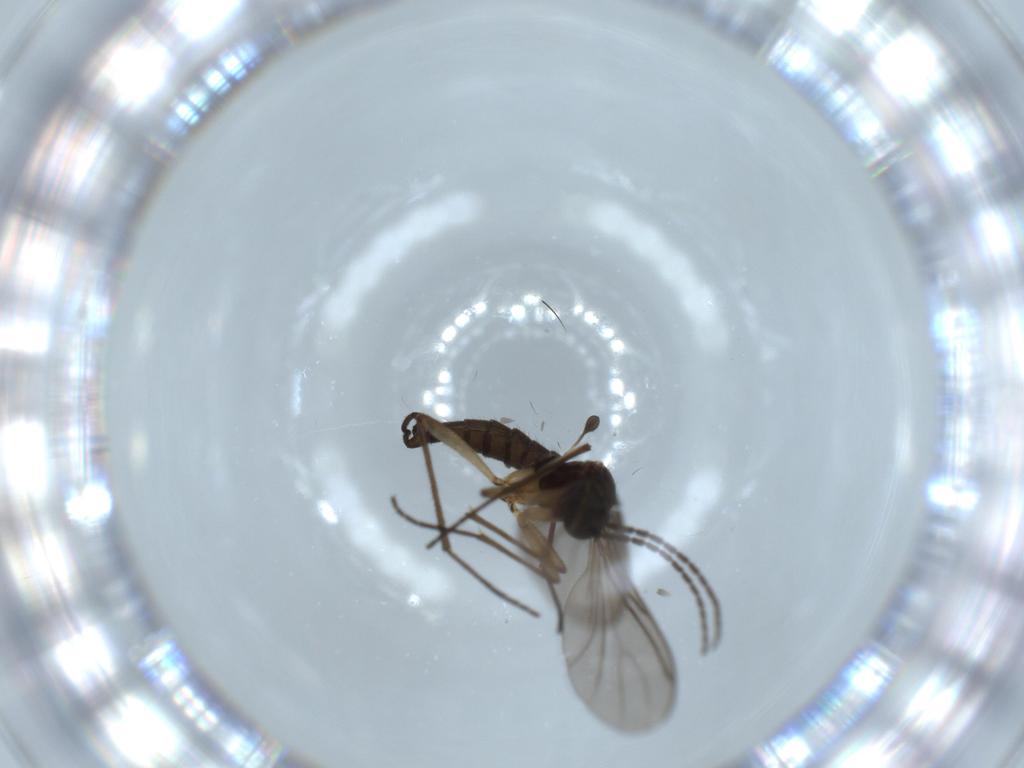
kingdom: Animalia
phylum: Arthropoda
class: Insecta
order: Diptera
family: Sciaridae
